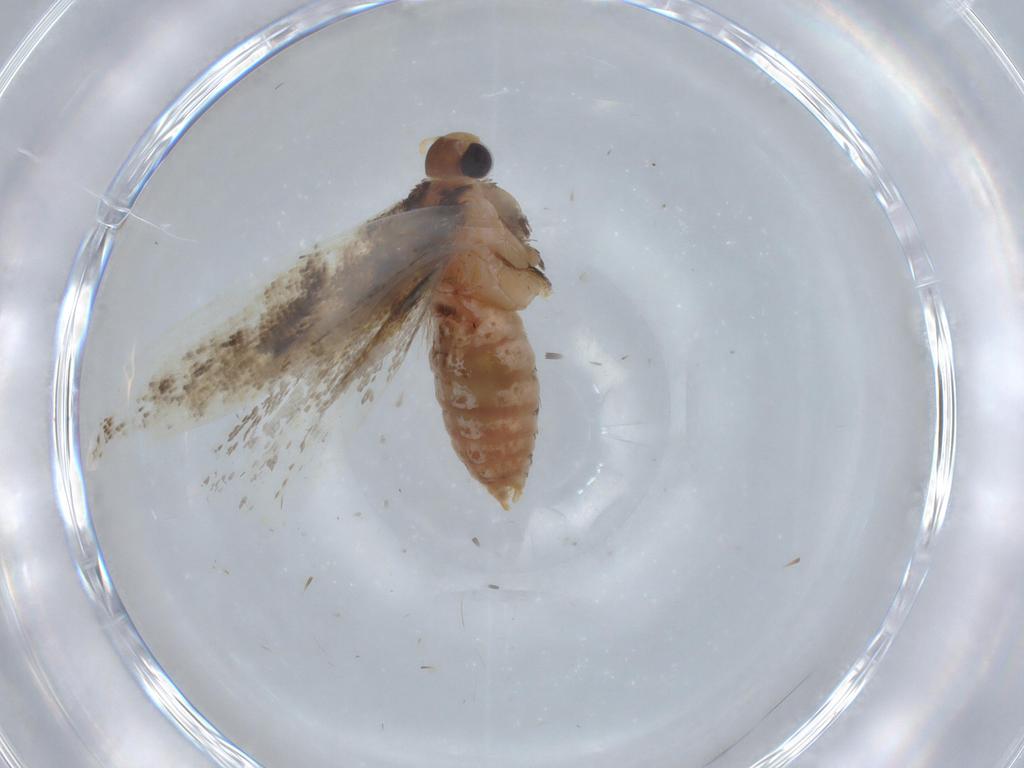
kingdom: Animalia
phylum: Arthropoda
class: Insecta
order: Lepidoptera
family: Gelechiidae
